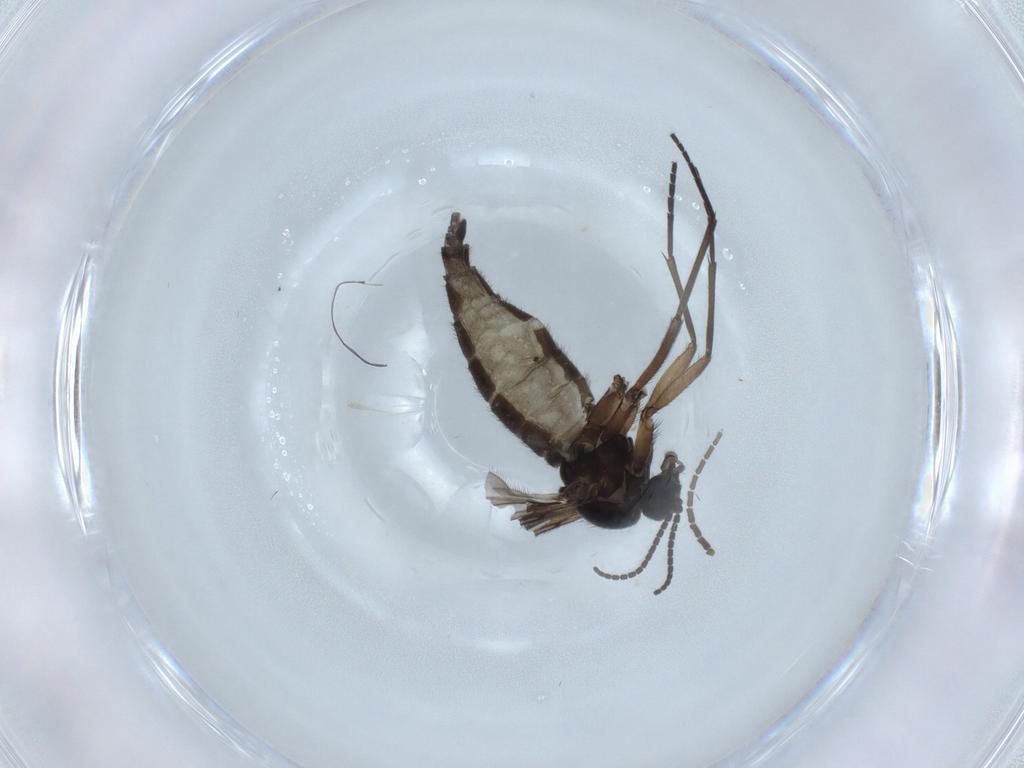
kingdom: Animalia
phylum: Arthropoda
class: Insecta
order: Diptera
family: Sciaridae
